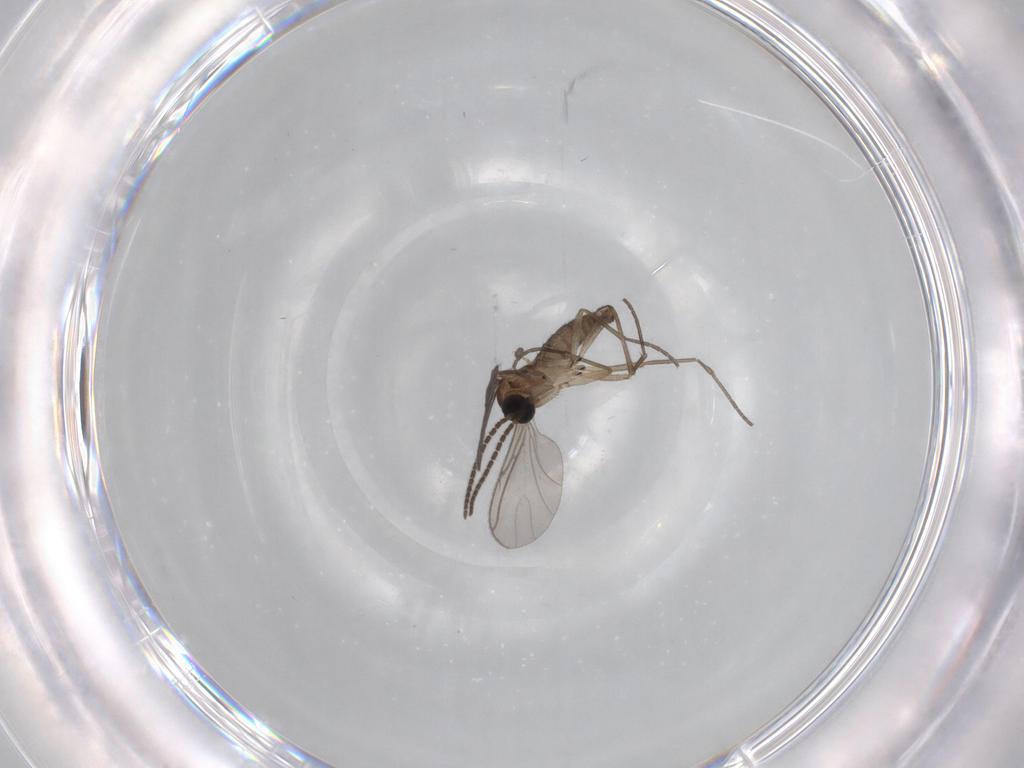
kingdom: Animalia
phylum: Arthropoda
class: Insecta
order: Diptera
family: Sciaridae
